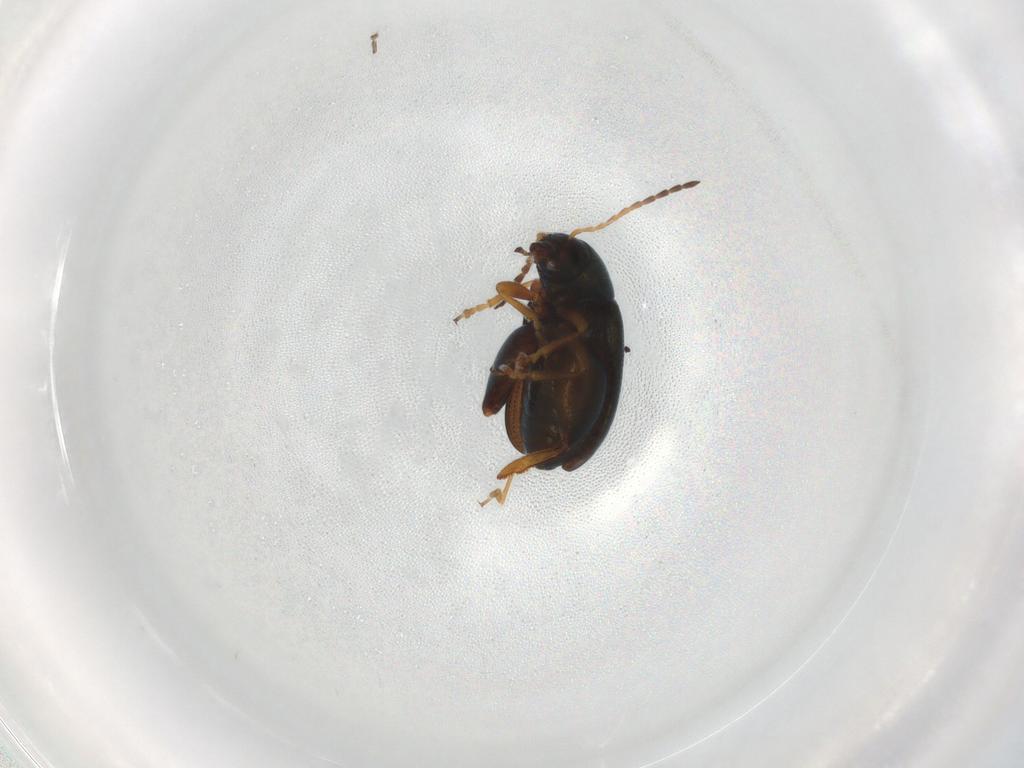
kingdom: Animalia
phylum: Arthropoda
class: Insecta
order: Coleoptera
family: Chrysomelidae
